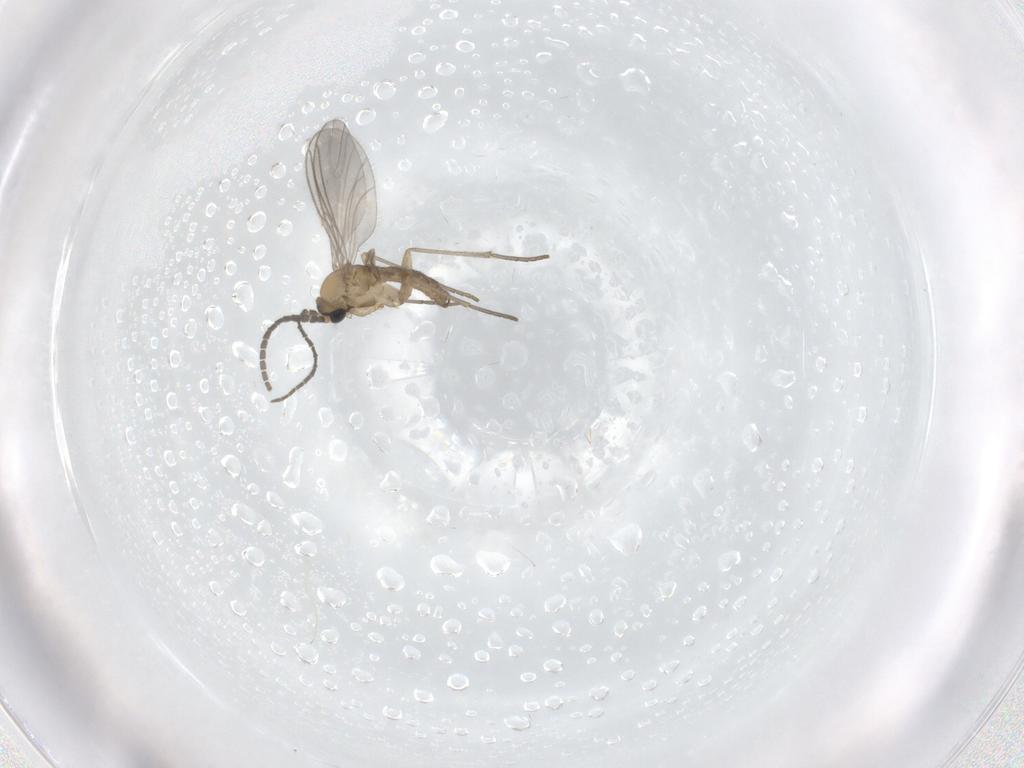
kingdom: Animalia
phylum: Arthropoda
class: Insecta
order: Diptera
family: Sciaridae
